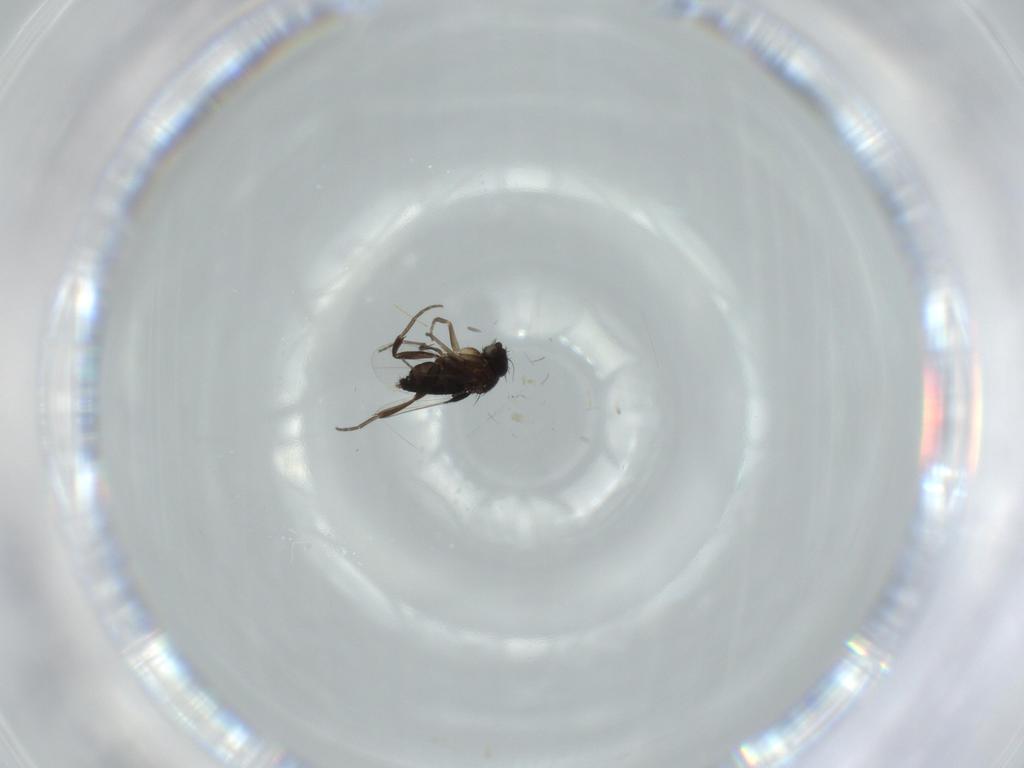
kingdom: Animalia
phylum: Arthropoda
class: Insecta
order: Diptera
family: Phoridae
